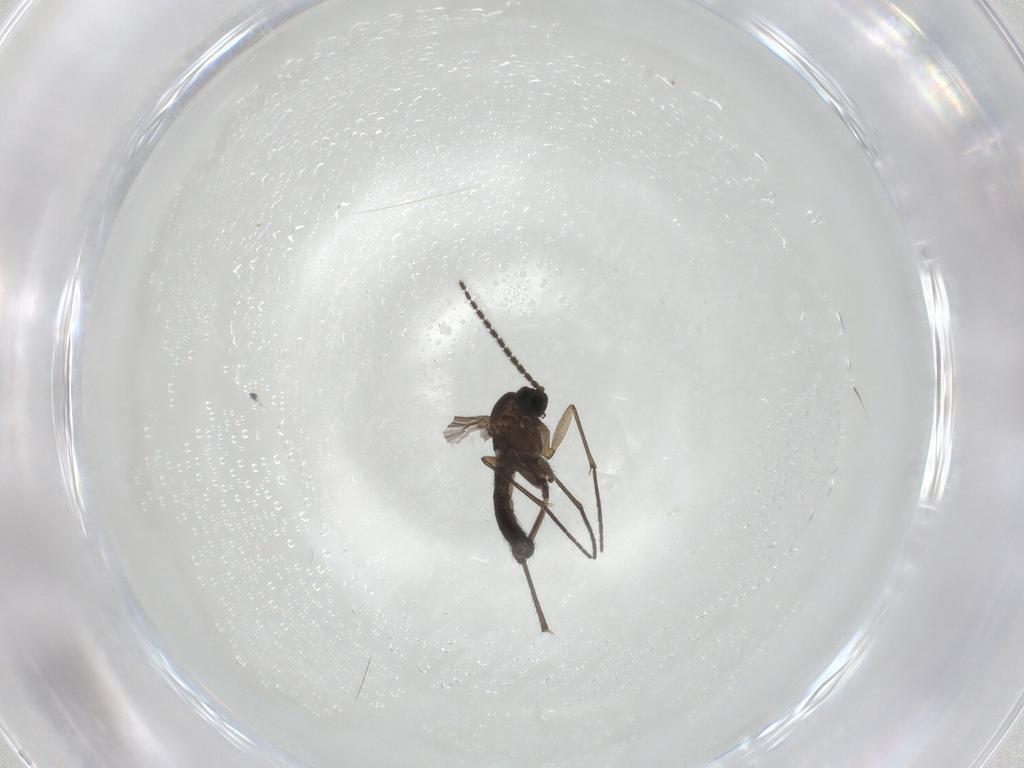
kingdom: Animalia
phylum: Arthropoda
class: Insecta
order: Diptera
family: Sciaridae
